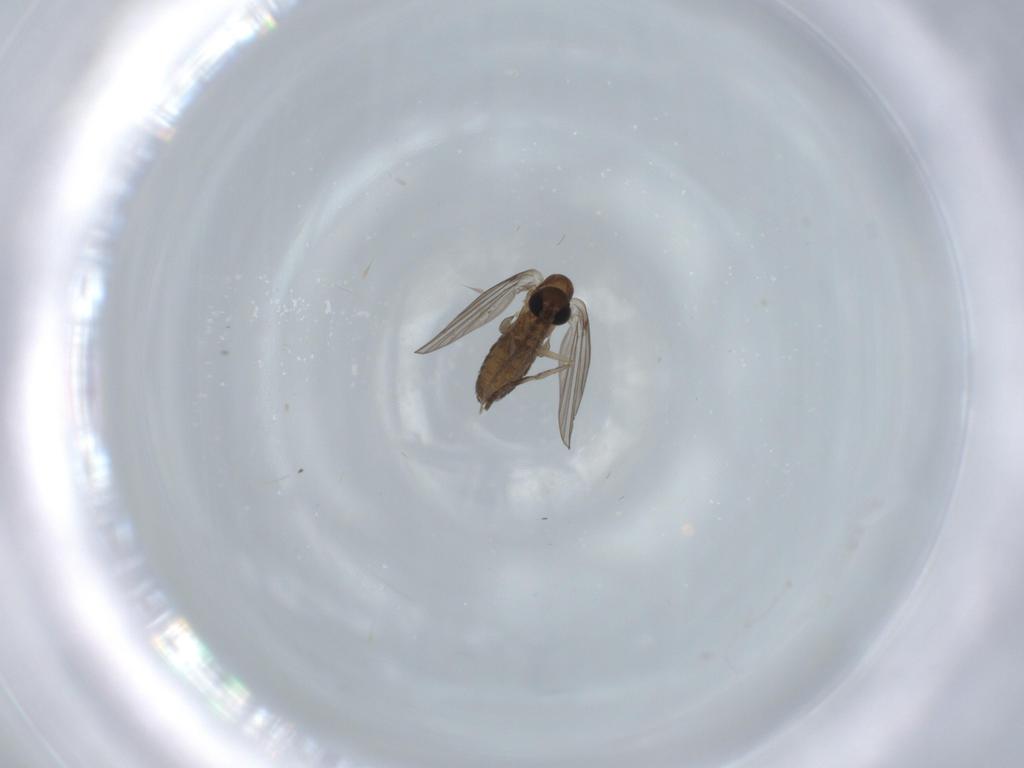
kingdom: Animalia
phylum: Arthropoda
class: Insecta
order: Diptera
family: Psychodidae
